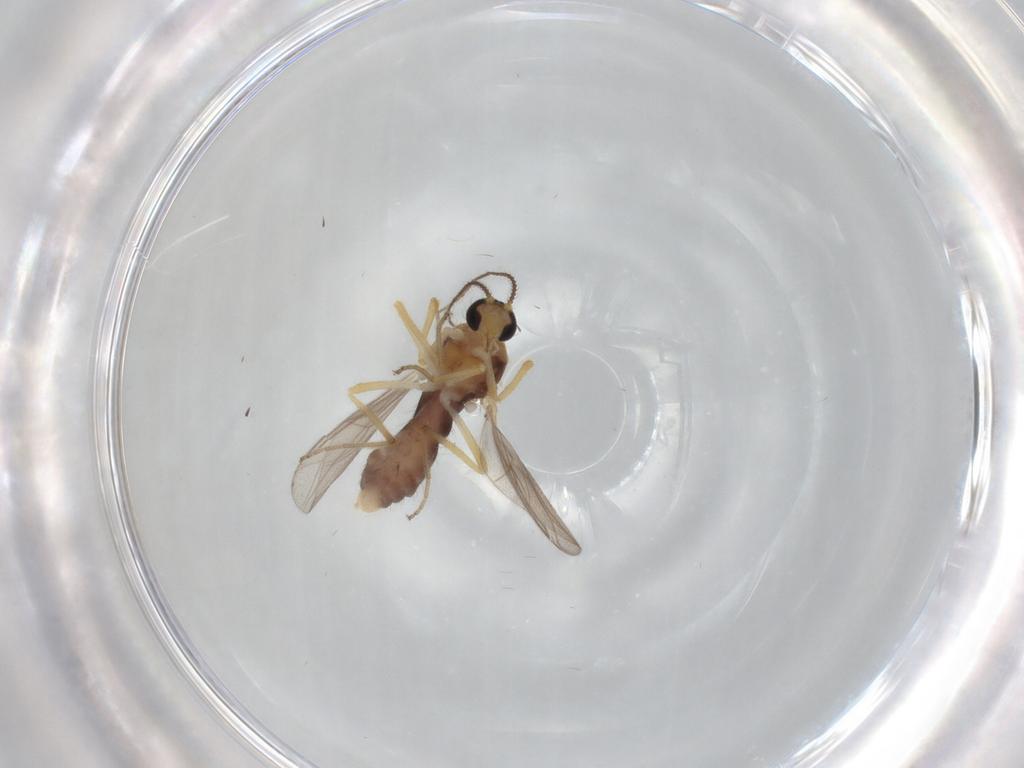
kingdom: Animalia
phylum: Arthropoda
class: Insecta
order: Diptera
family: Ceratopogonidae
